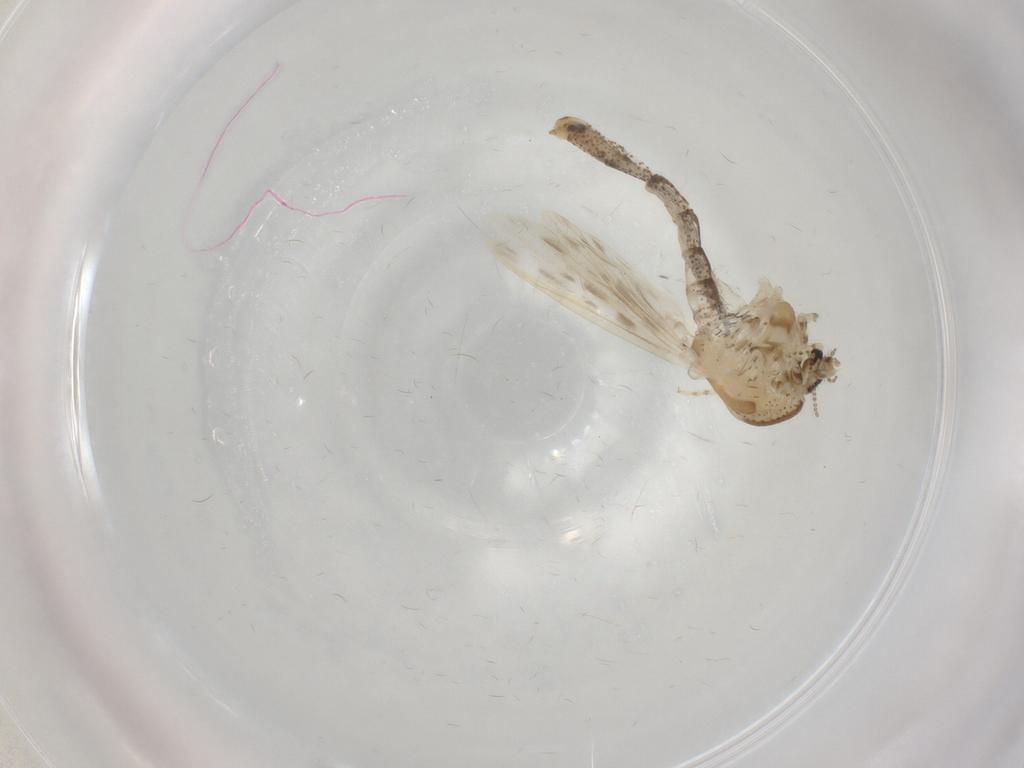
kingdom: Animalia
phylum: Arthropoda
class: Insecta
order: Diptera
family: Chaoboridae
